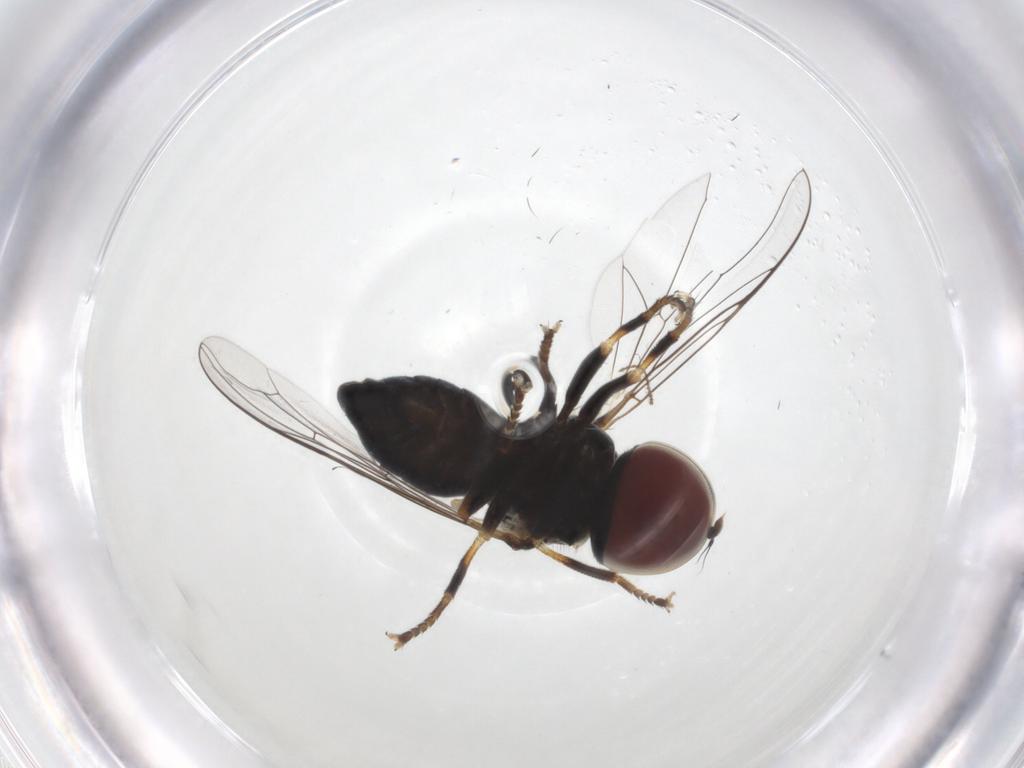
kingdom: Animalia
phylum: Arthropoda
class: Insecta
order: Diptera
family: Pipunculidae
